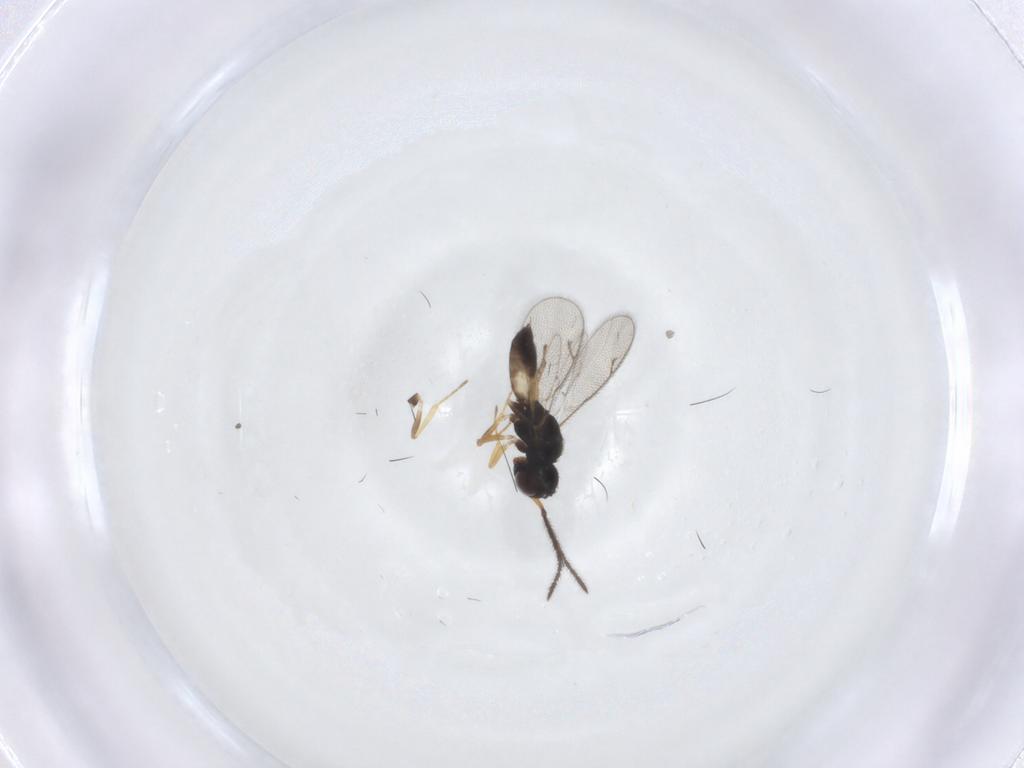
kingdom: Animalia
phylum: Arthropoda
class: Insecta
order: Hymenoptera
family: Pteromalidae
